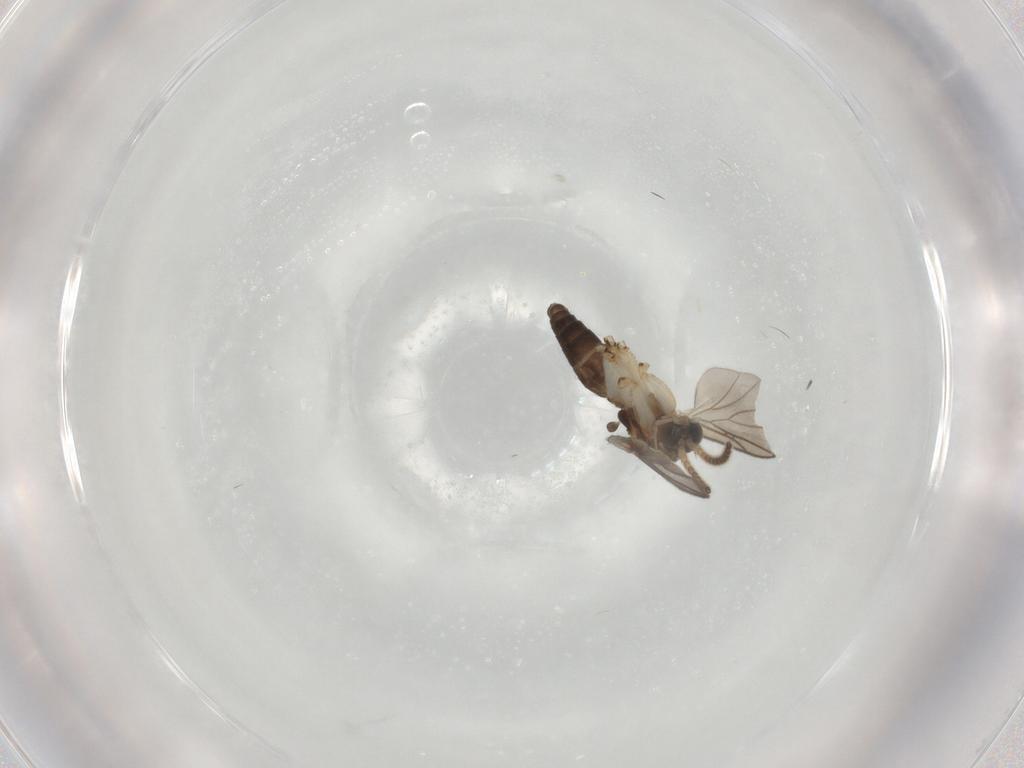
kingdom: Animalia
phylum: Arthropoda
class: Insecta
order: Diptera
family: Mycetophilidae
